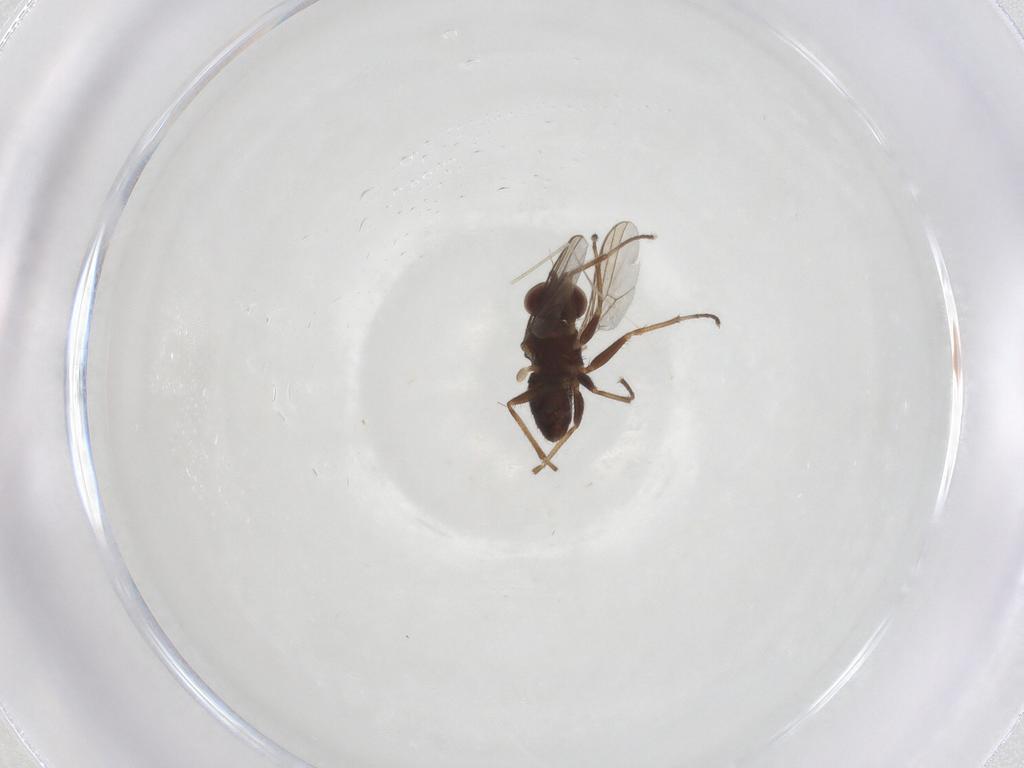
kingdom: Animalia
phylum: Arthropoda
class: Insecta
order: Diptera
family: Dolichopodidae
